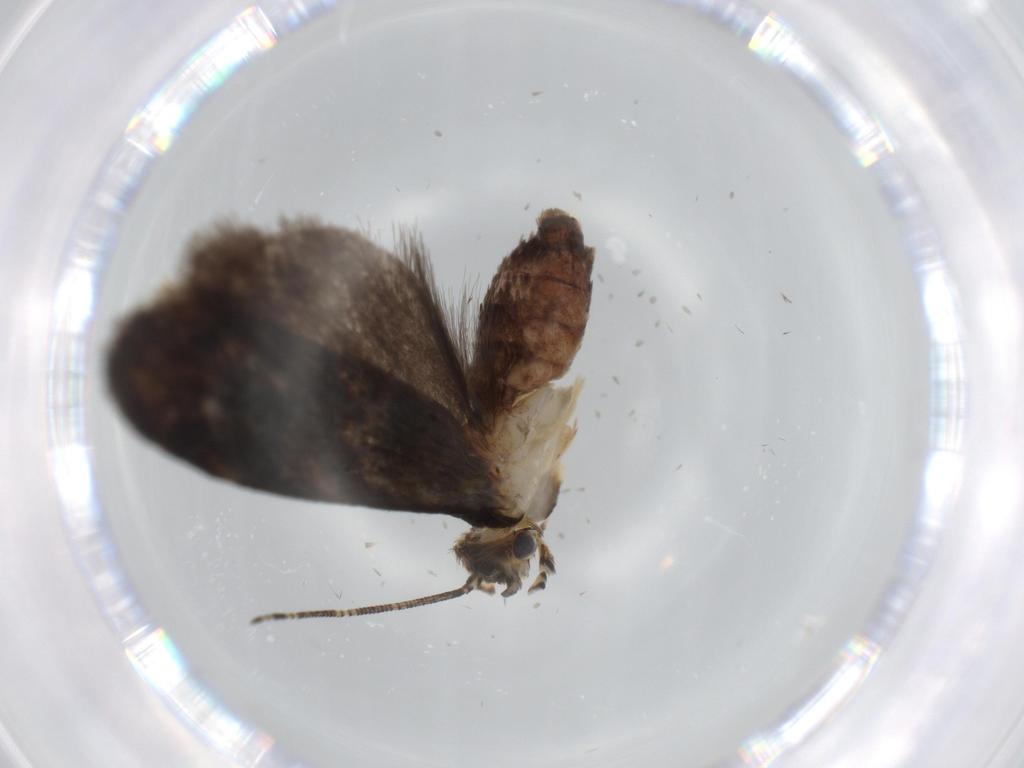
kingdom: Animalia
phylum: Arthropoda
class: Insecta
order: Lepidoptera
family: Tineidae
